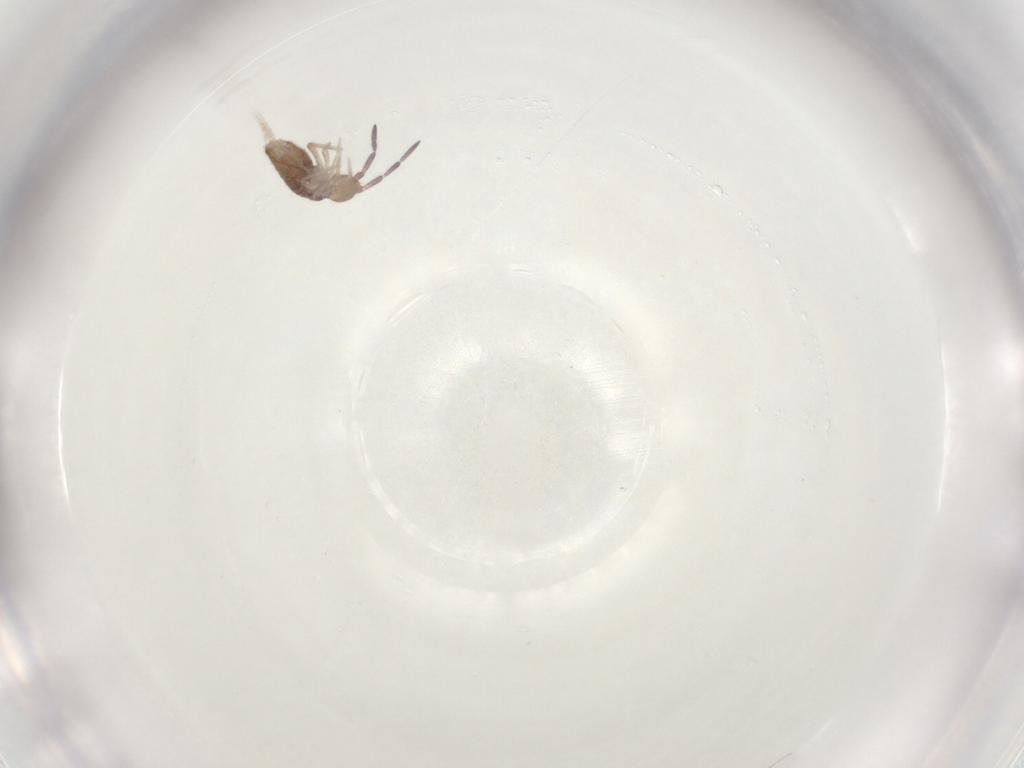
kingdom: Animalia
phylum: Arthropoda
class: Collembola
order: Entomobryomorpha
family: Entomobryidae
